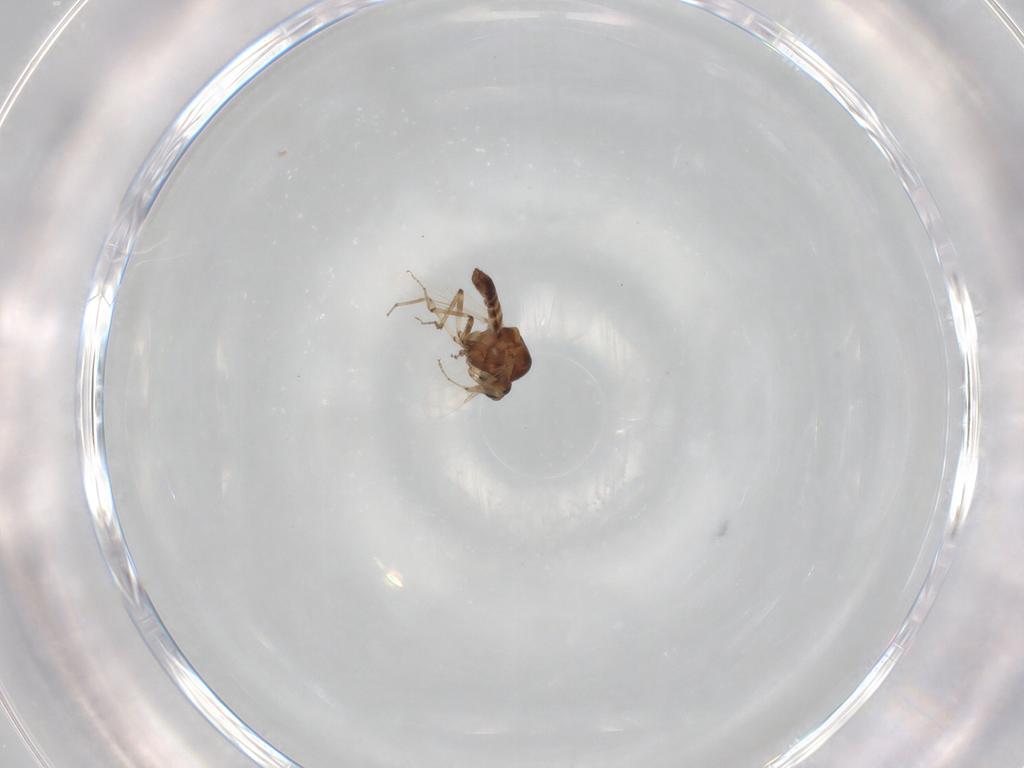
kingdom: Animalia
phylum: Arthropoda
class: Insecta
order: Diptera
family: Ceratopogonidae
